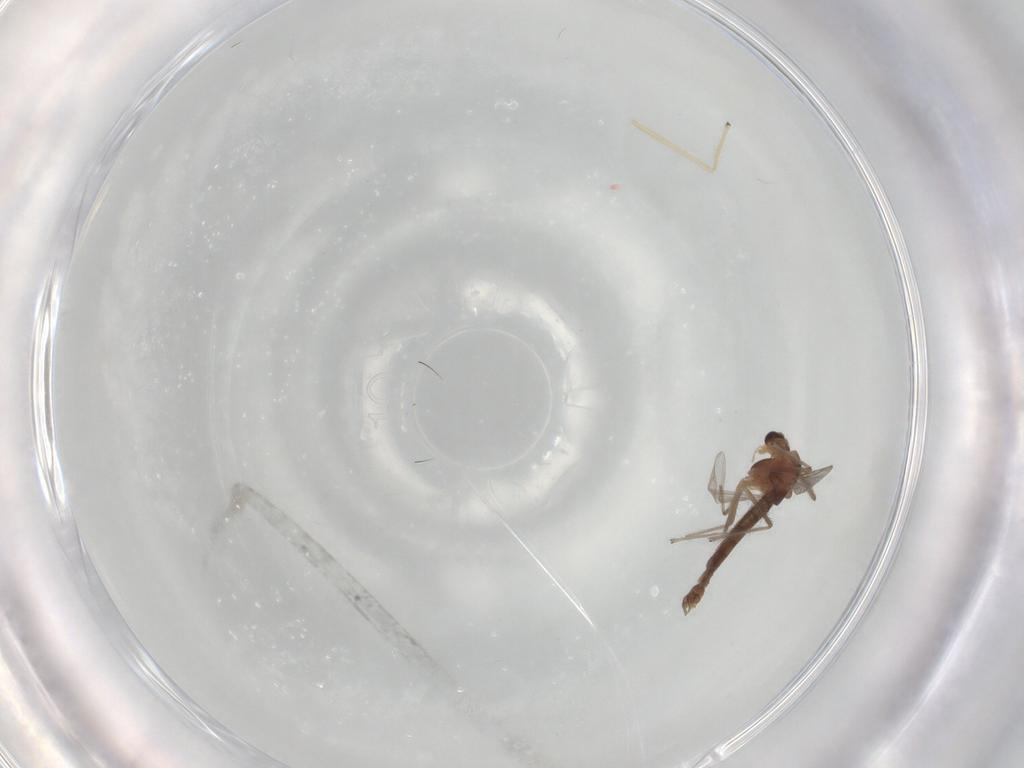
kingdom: Animalia
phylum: Arthropoda
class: Insecta
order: Diptera
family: Chironomidae
